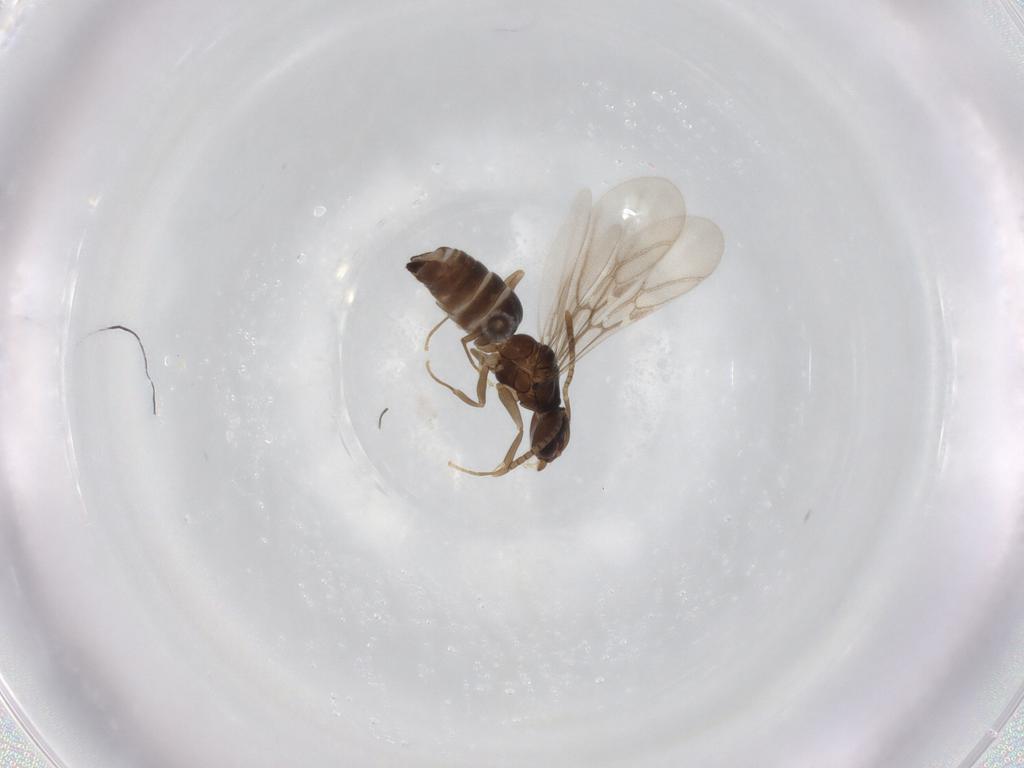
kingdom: Animalia
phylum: Arthropoda
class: Insecta
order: Hymenoptera
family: Formicidae
